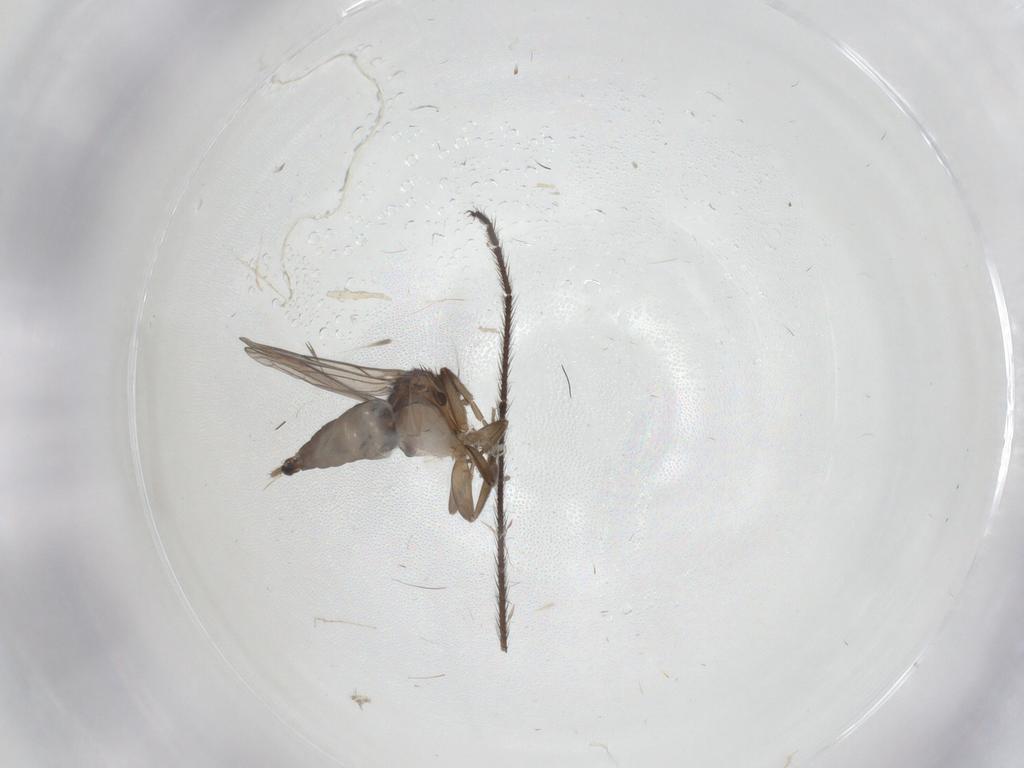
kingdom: Animalia
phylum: Arthropoda
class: Insecta
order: Diptera
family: Phoridae
